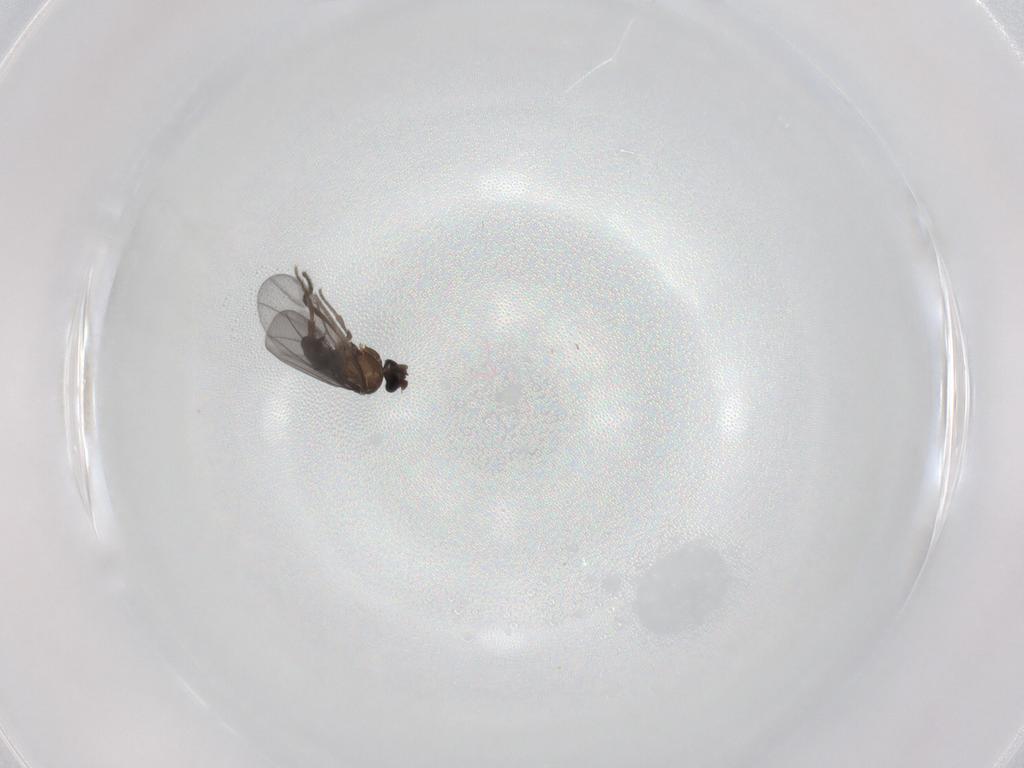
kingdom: Animalia
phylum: Arthropoda
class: Insecta
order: Diptera
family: Phoridae
